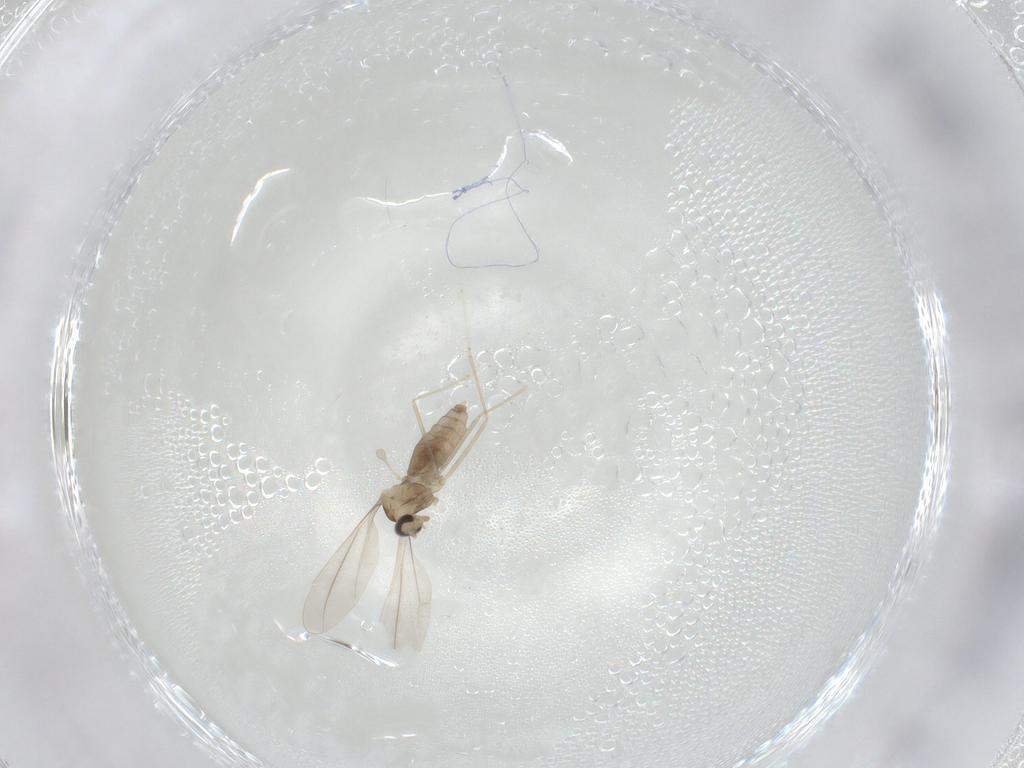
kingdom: Animalia
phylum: Arthropoda
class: Insecta
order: Diptera
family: Cecidomyiidae
